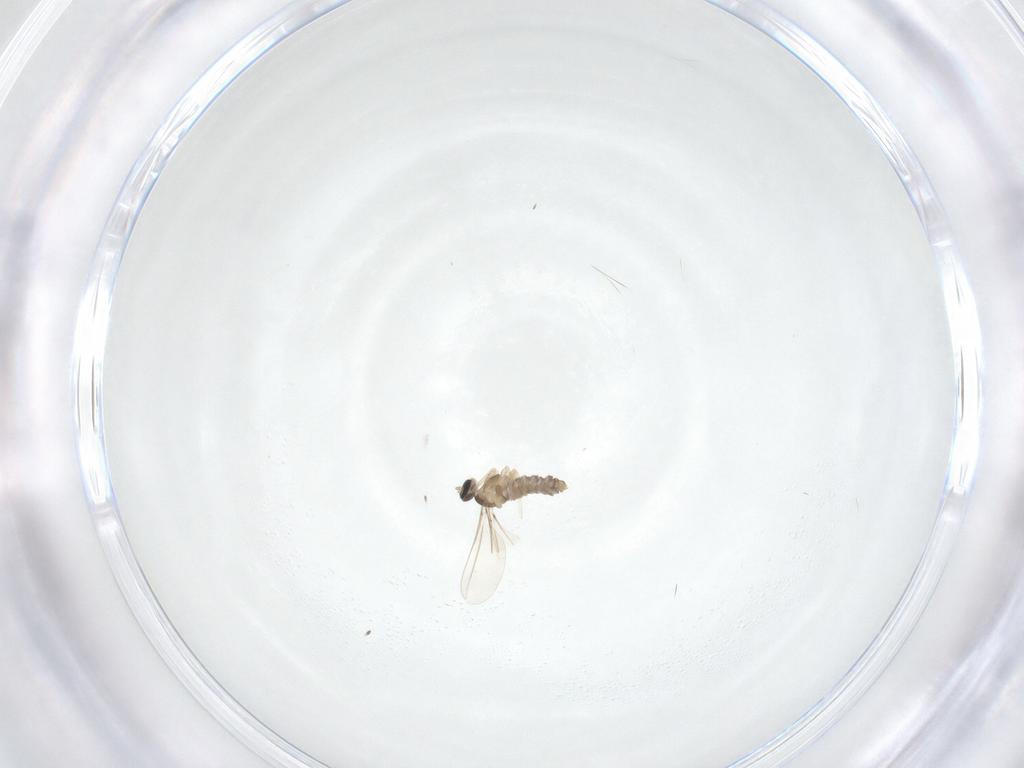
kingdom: Animalia
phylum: Arthropoda
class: Insecta
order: Diptera
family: Cecidomyiidae
